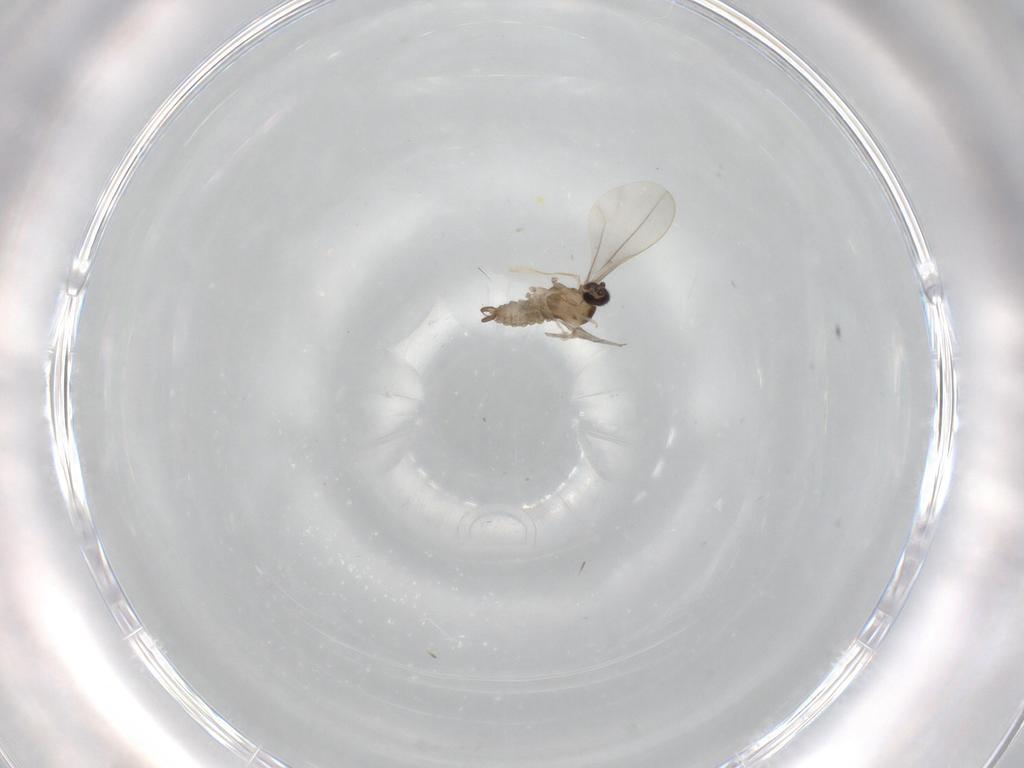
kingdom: Animalia
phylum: Arthropoda
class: Insecta
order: Diptera
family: Cecidomyiidae
